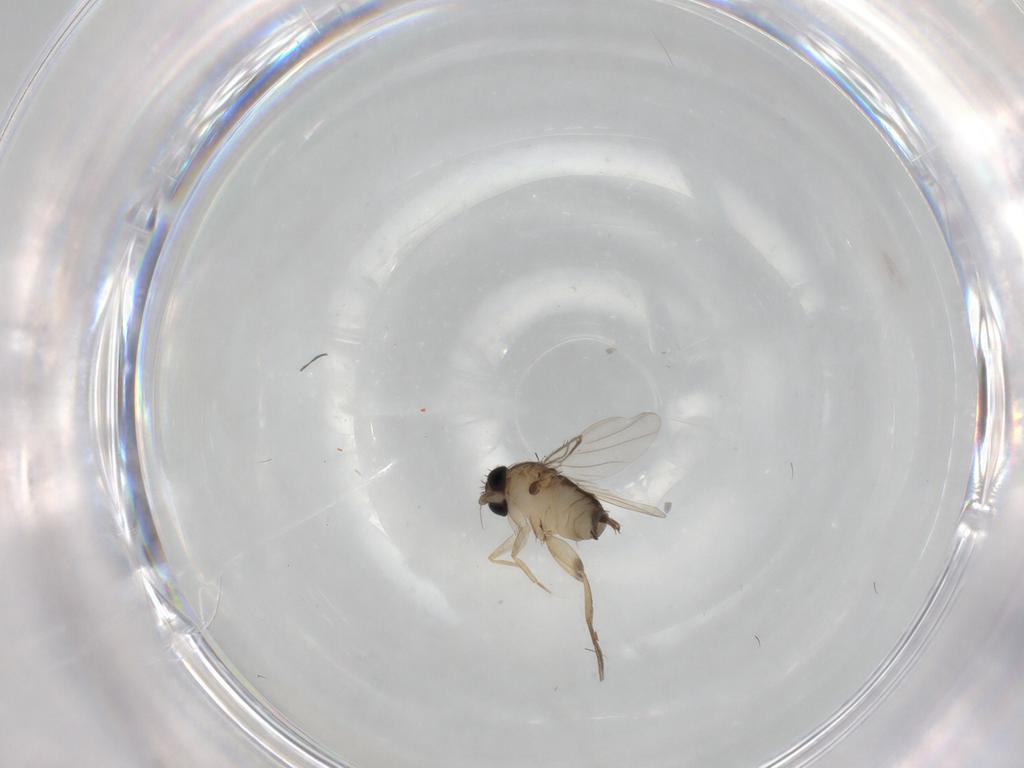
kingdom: Animalia
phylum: Arthropoda
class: Insecta
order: Diptera
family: Phoridae
